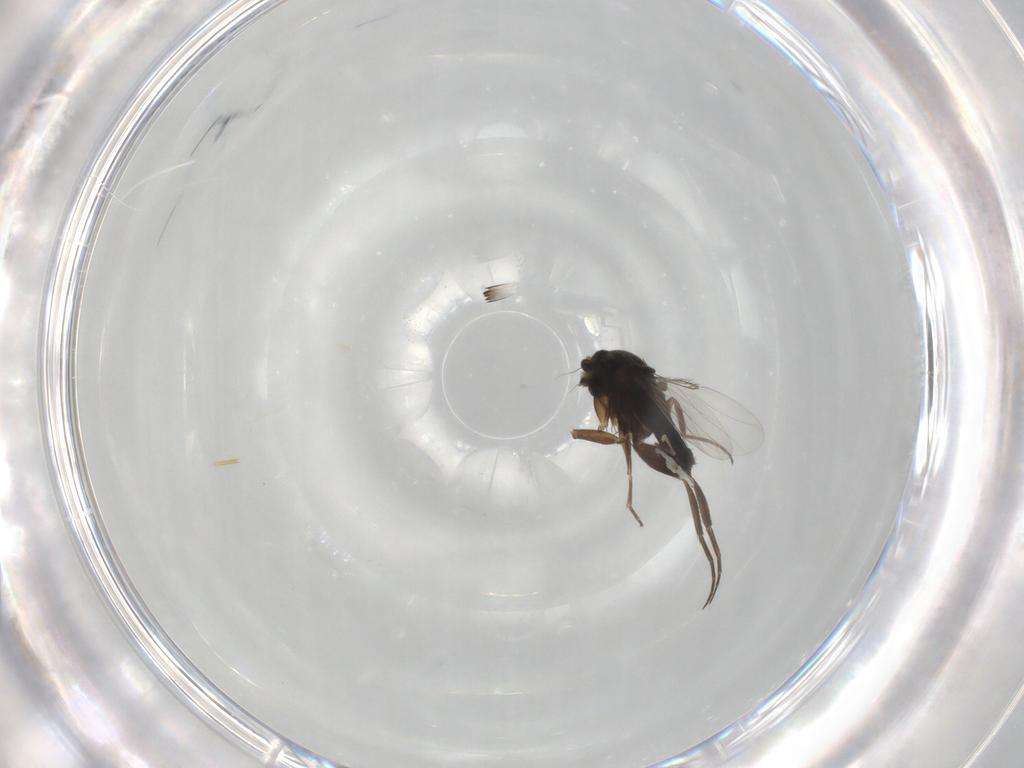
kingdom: Animalia
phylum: Arthropoda
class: Insecta
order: Diptera
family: Phoridae
